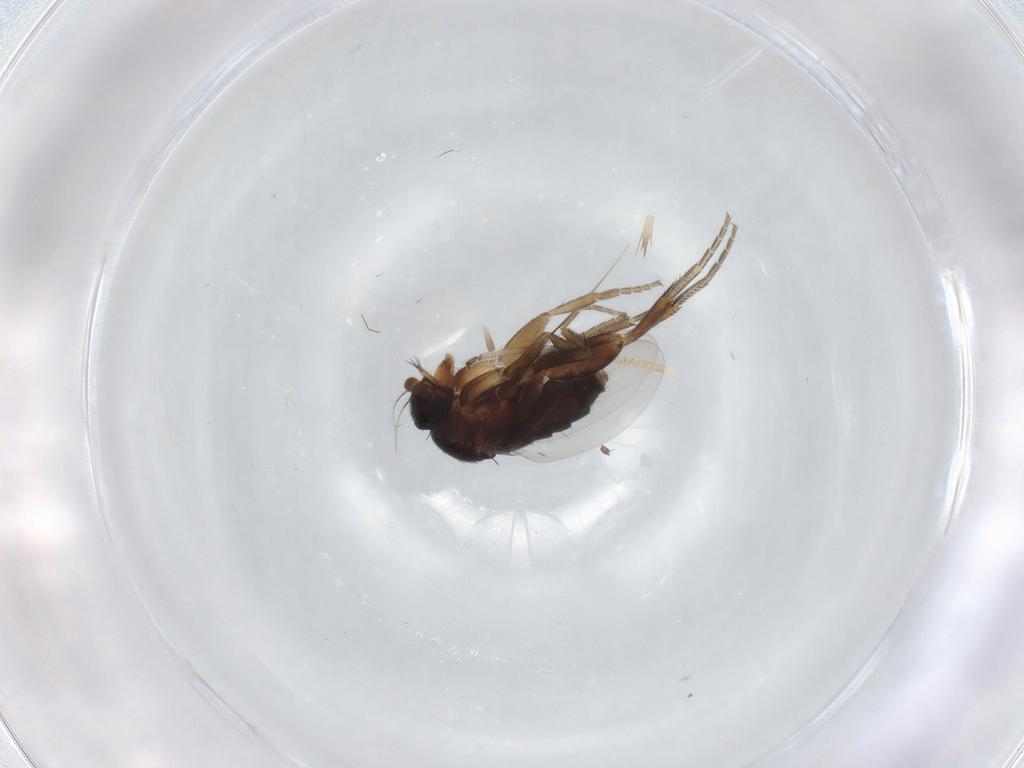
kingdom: Animalia
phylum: Arthropoda
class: Insecta
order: Diptera
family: Phoridae
